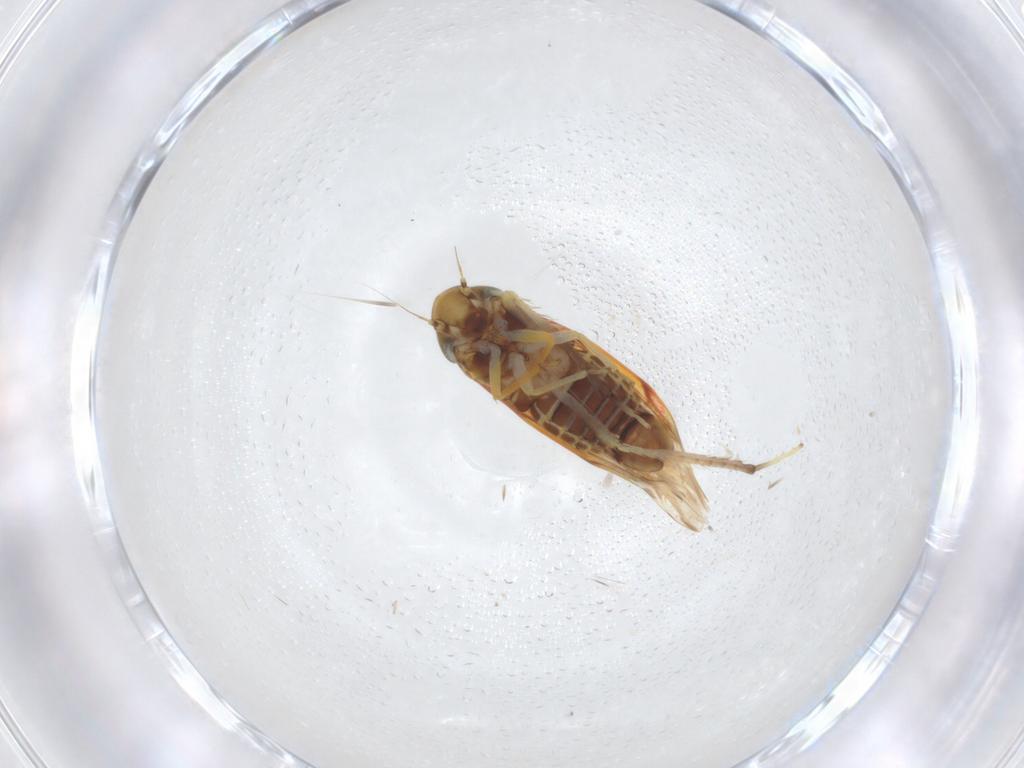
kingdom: Animalia
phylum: Arthropoda
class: Insecta
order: Hemiptera
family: Cicadellidae
